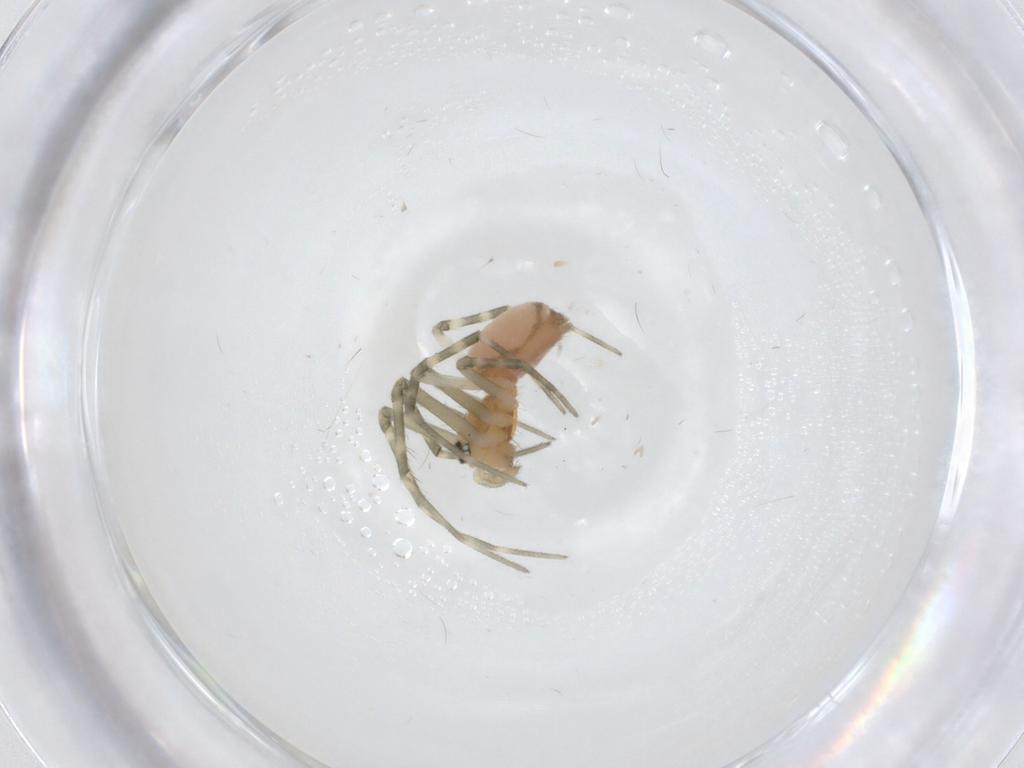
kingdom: Animalia
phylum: Arthropoda
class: Arachnida
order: Araneae
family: Linyphiidae
